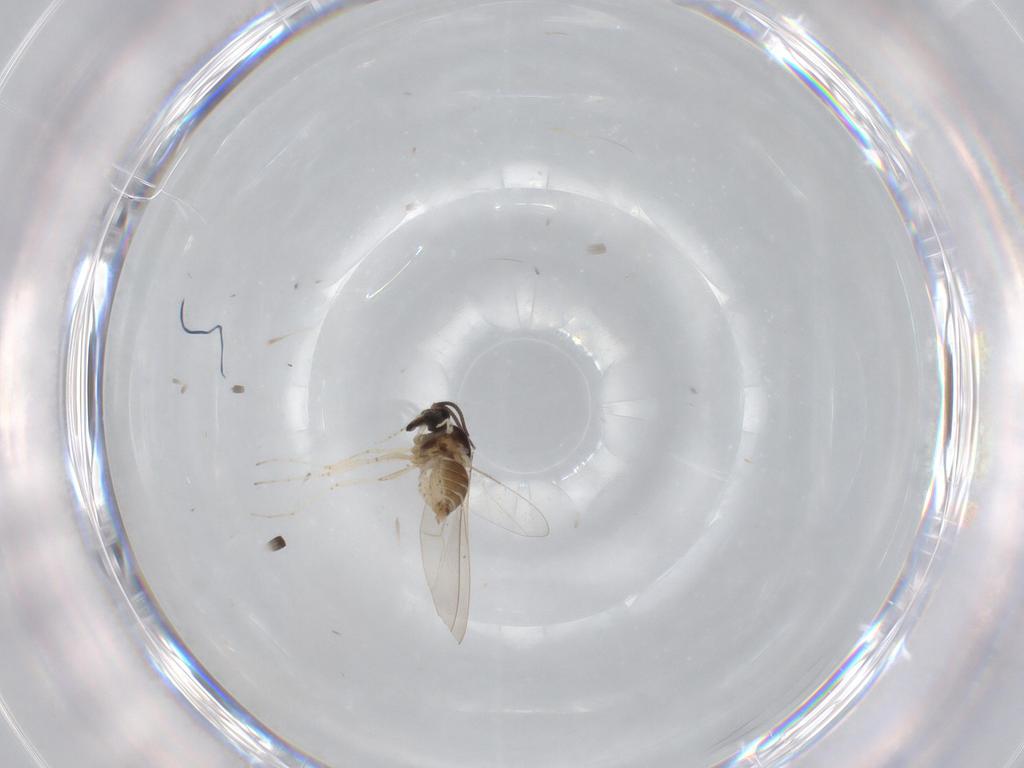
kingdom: Animalia
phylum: Arthropoda
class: Insecta
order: Diptera
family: Cecidomyiidae
